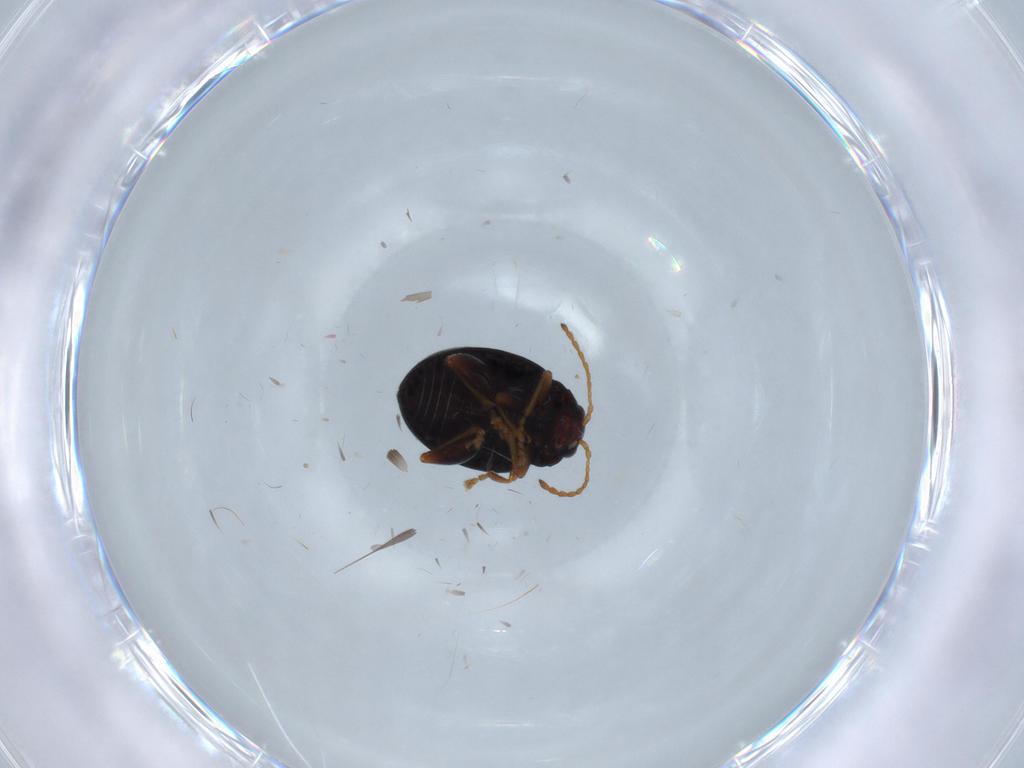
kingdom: Animalia
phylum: Arthropoda
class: Insecta
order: Coleoptera
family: Chrysomelidae
